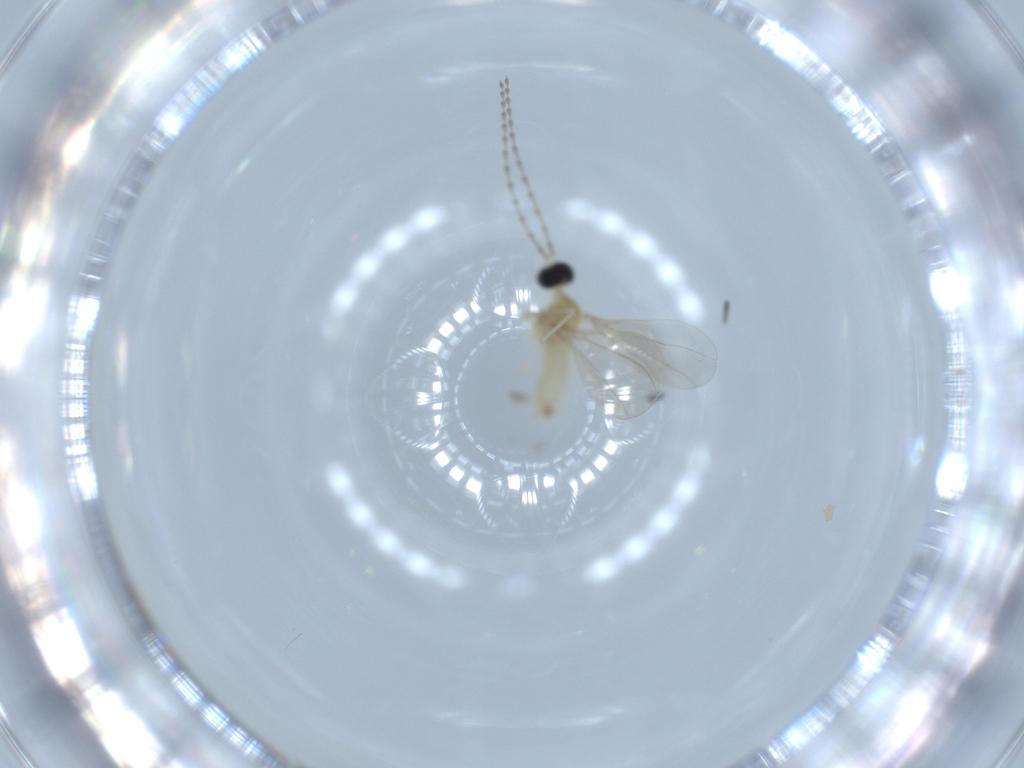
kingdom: Animalia
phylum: Arthropoda
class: Insecta
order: Diptera
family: Cecidomyiidae
